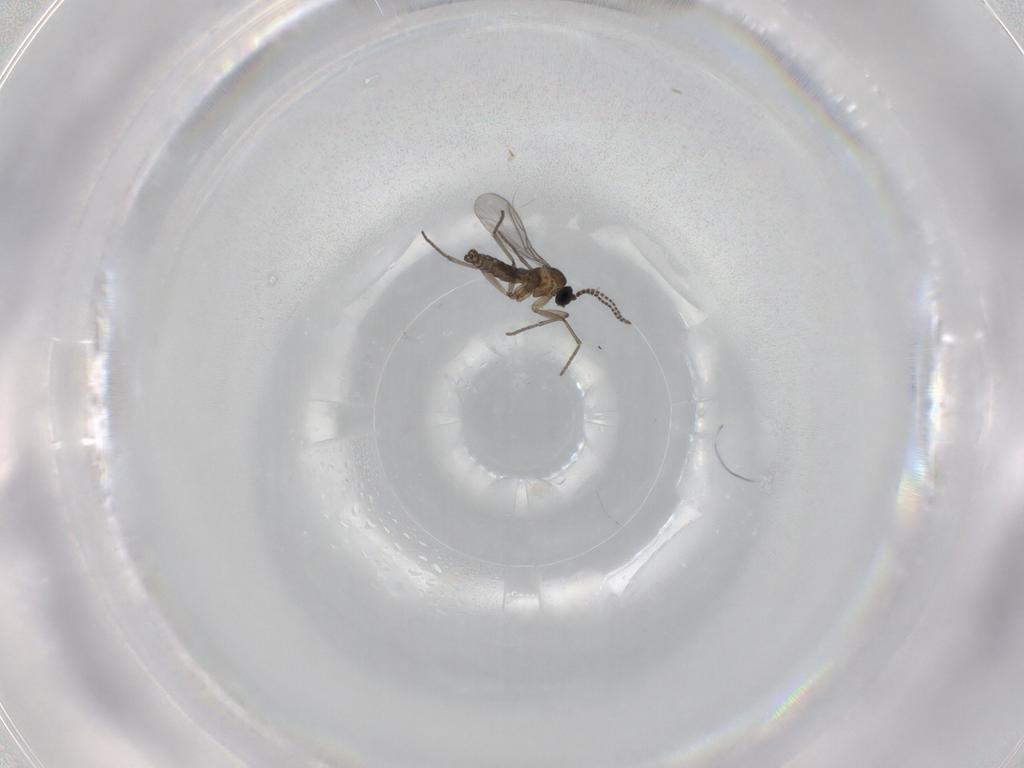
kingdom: Animalia
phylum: Arthropoda
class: Insecta
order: Diptera
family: Sciaridae
